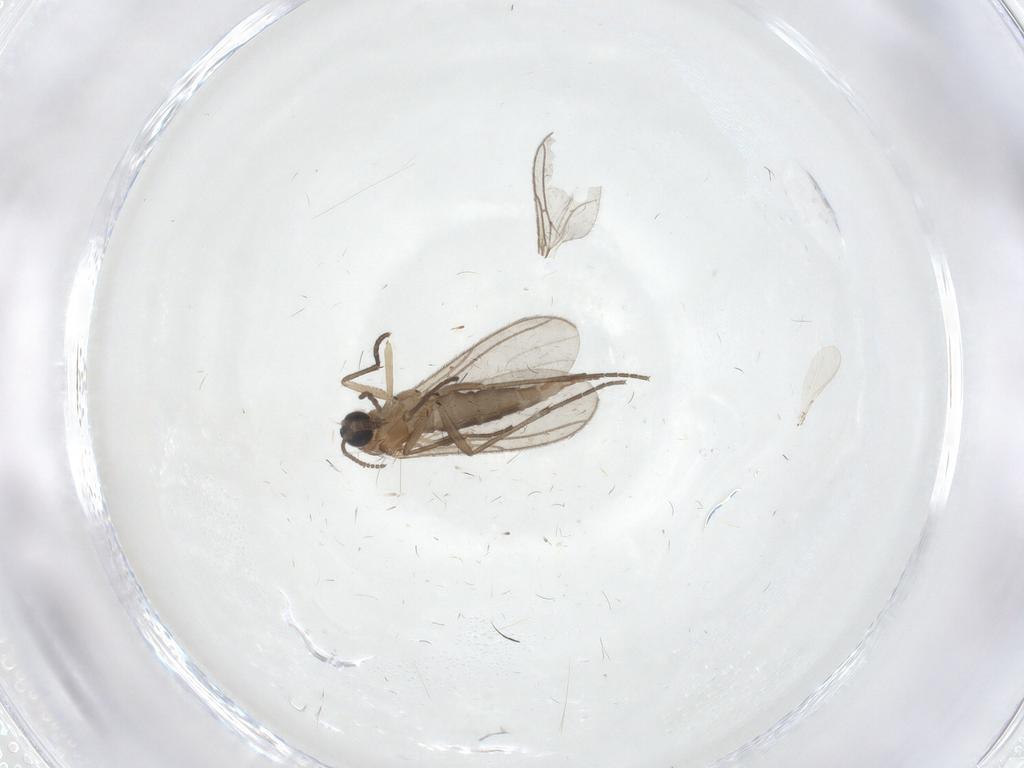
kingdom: Animalia
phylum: Arthropoda
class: Insecta
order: Diptera
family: Sciaridae
